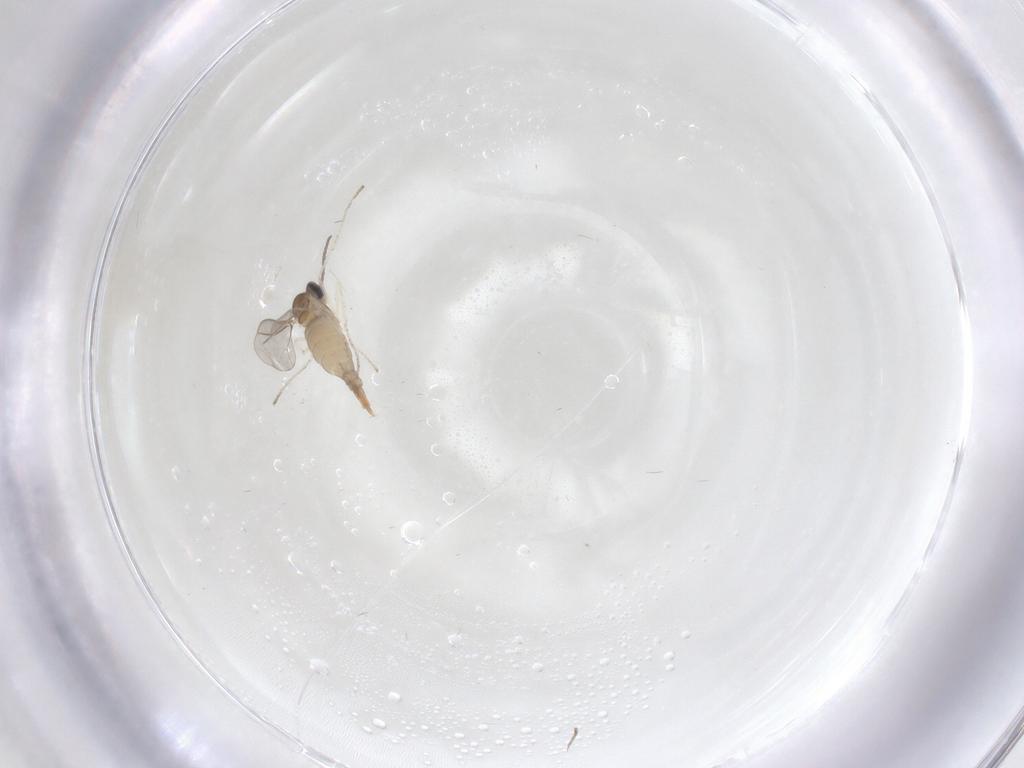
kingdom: Animalia
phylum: Arthropoda
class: Insecta
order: Diptera
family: Cecidomyiidae
